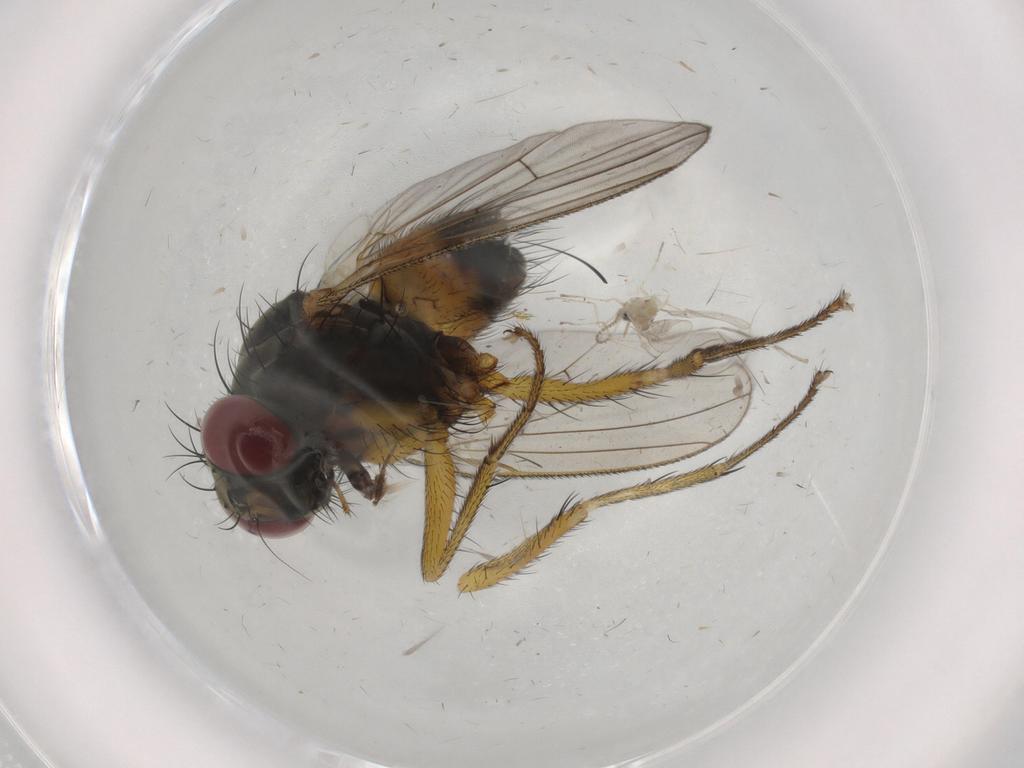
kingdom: Animalia
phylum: Arthropoda
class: Insecta
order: Diptera
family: Muscidae
